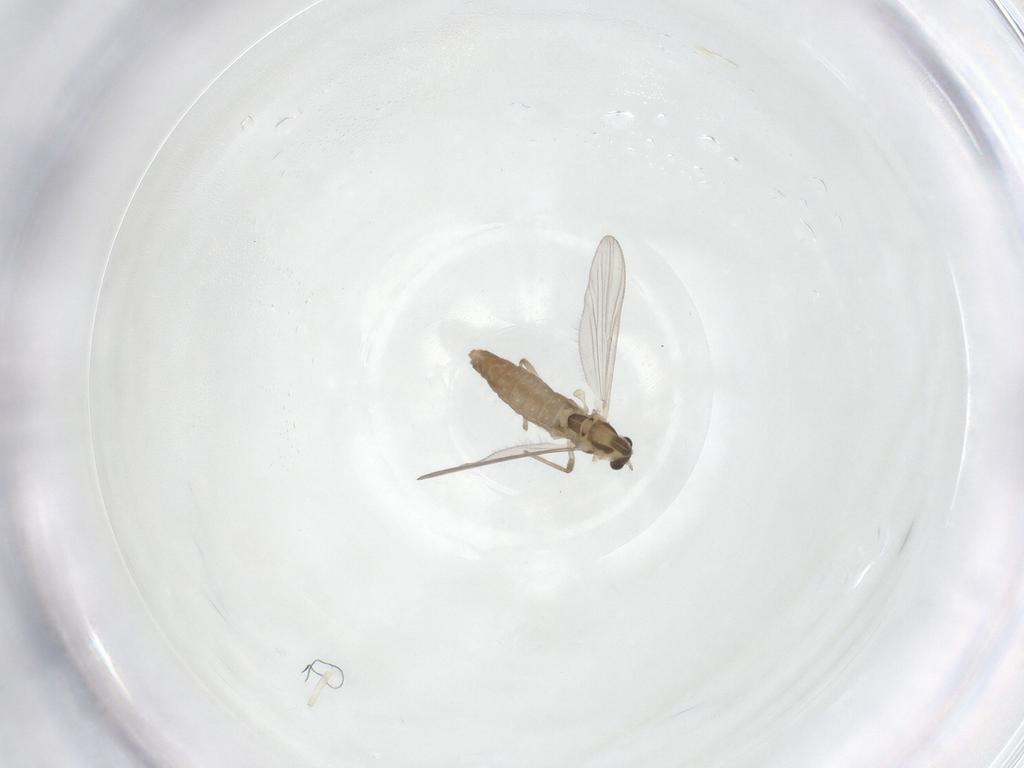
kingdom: Animalia
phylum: Arthropoda
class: Insecta
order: Diptera
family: Chironomidae
